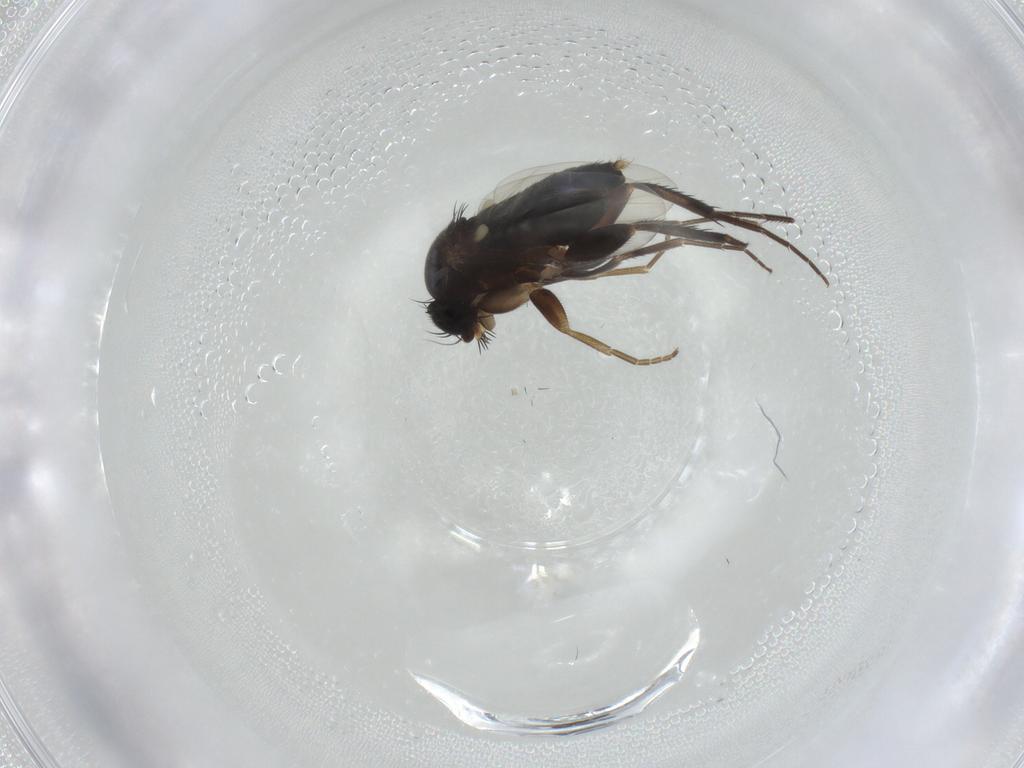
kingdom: Animalia
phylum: Arthropoda
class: Insecta
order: Diptera
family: Phoridae
